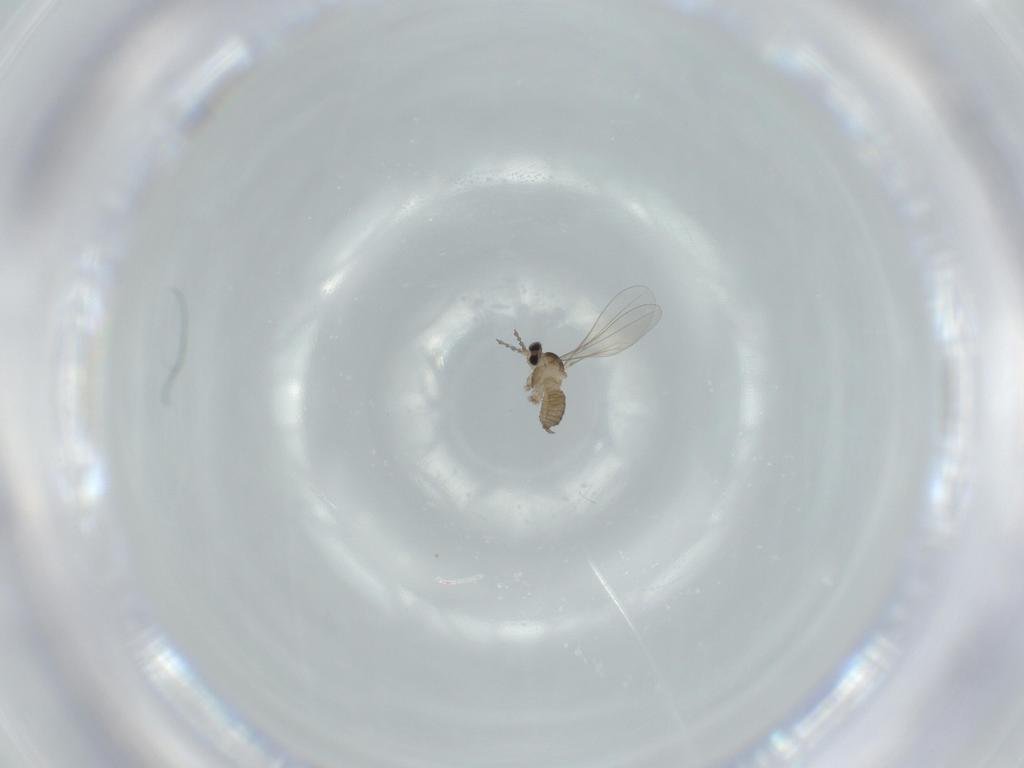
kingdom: Animalia
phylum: Arthropoda
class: Insecta
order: Diptera
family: Cecidomyiidae
